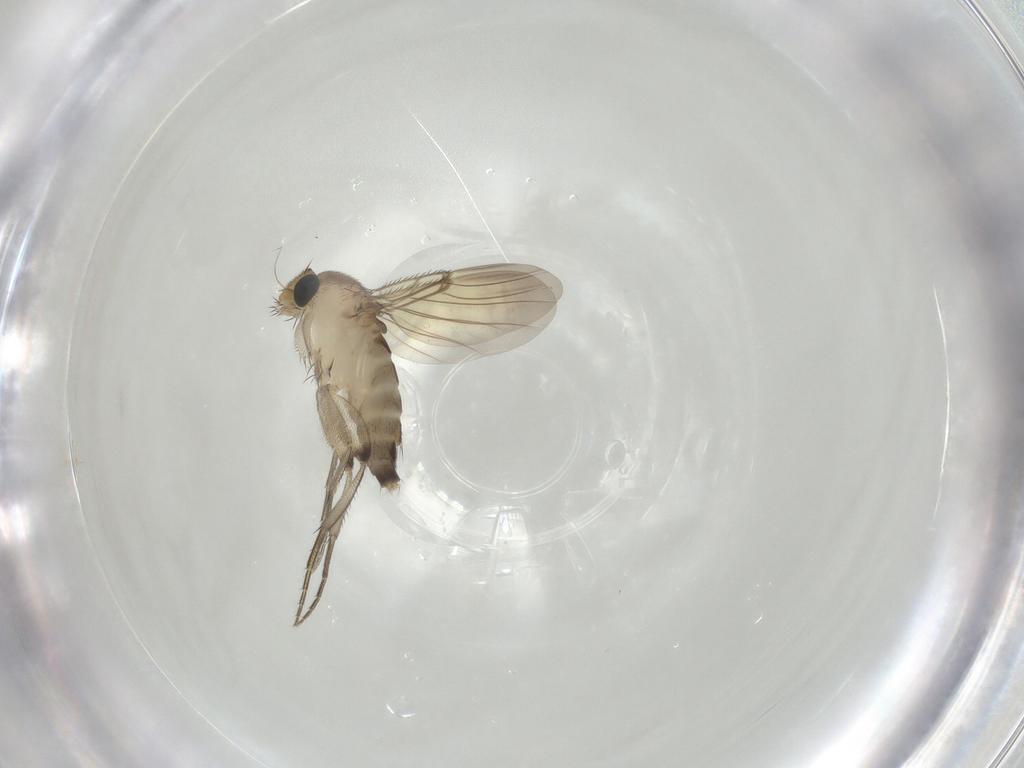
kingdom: Animalia
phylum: Arthropoda
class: Insecta
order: Diptera
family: Phoridae
